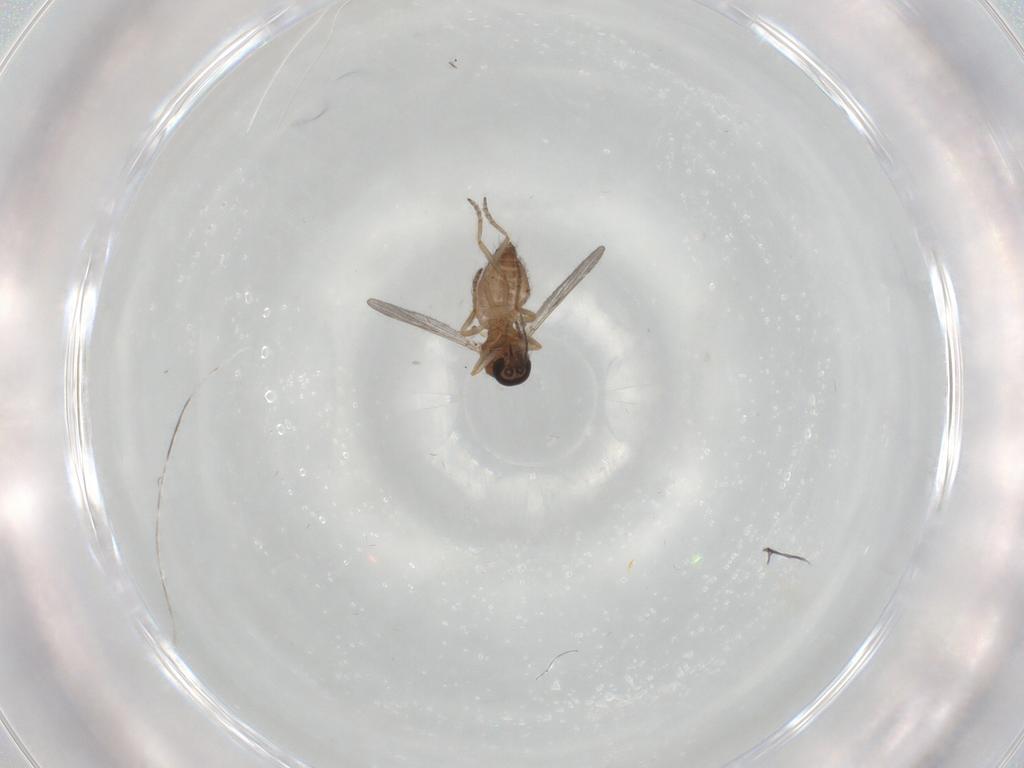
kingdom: Animalia
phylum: Arthropoda
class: Insecta
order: Diptera
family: Ceratopogonidae
